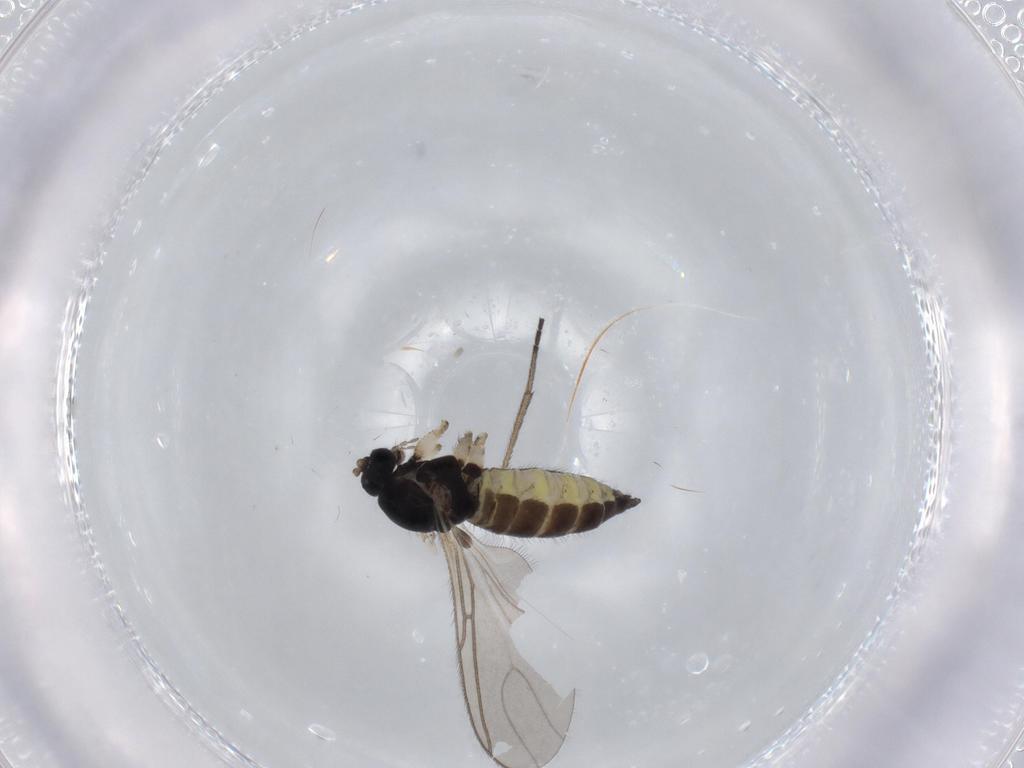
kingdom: Animalia
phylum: Arthropoda
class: Insecta
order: Diptera
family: Sciaridae
